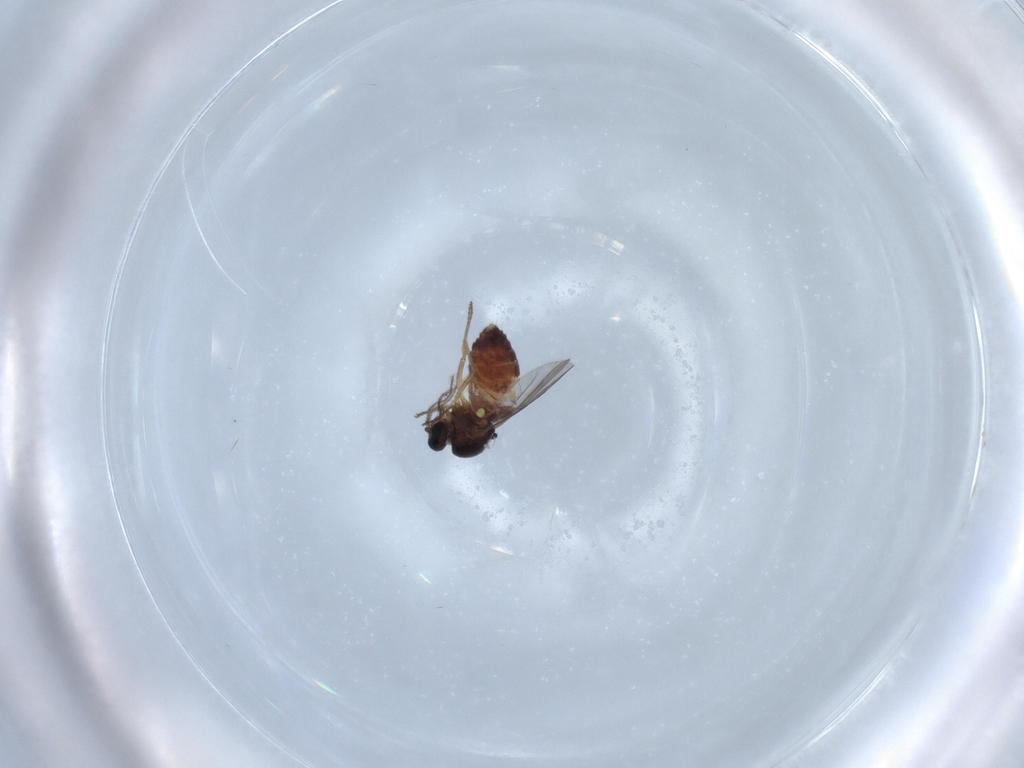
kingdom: Animalia
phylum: Arthropoda
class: Insecta
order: Diptera
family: Ceratopogonidae
